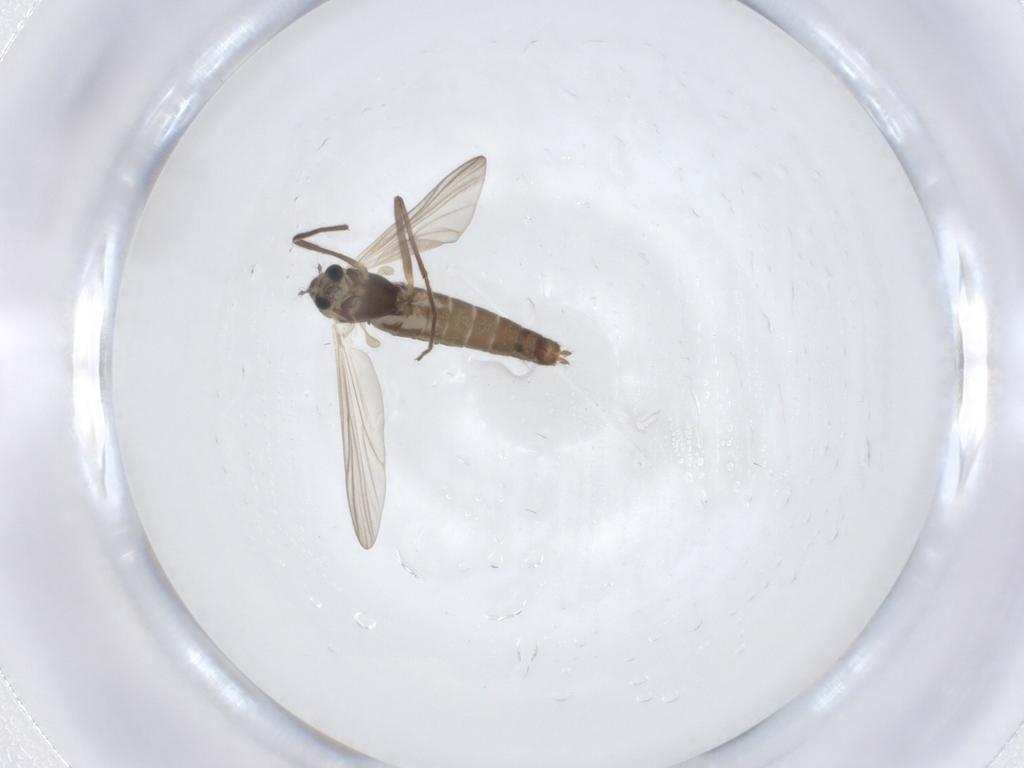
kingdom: Animalia
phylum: Arthropoda
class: Insecta
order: Diptera
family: Chironomidae
